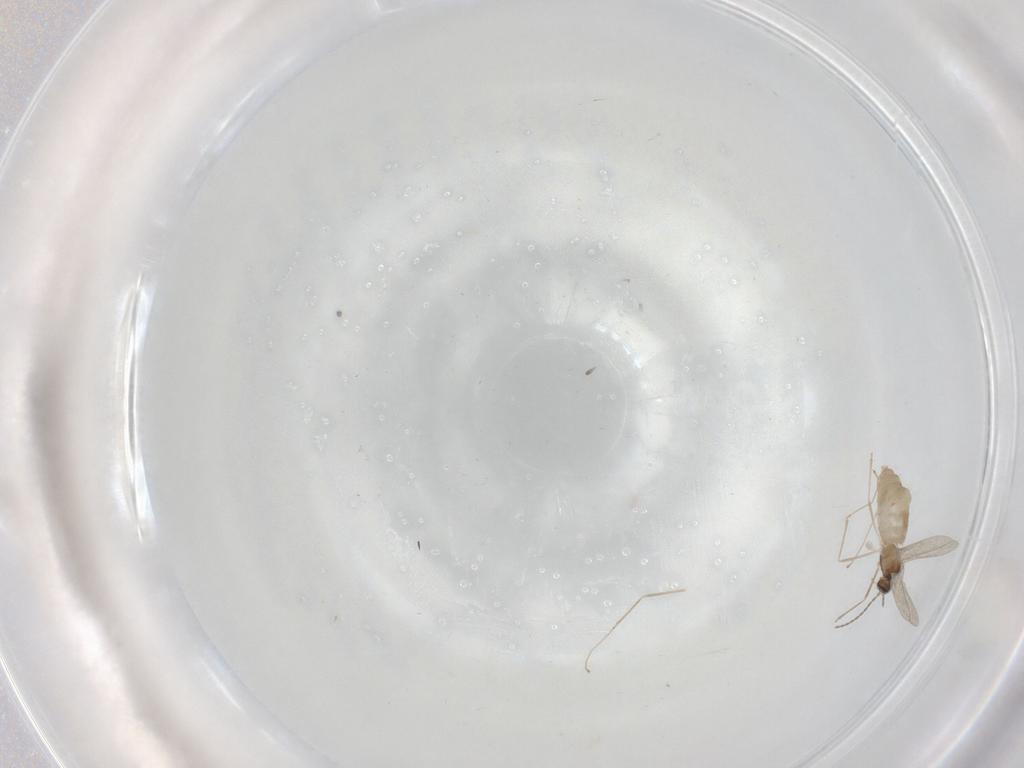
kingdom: Animalia
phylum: Arthropoda
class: Insecta
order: Diptera
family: Cecidomyiidae
